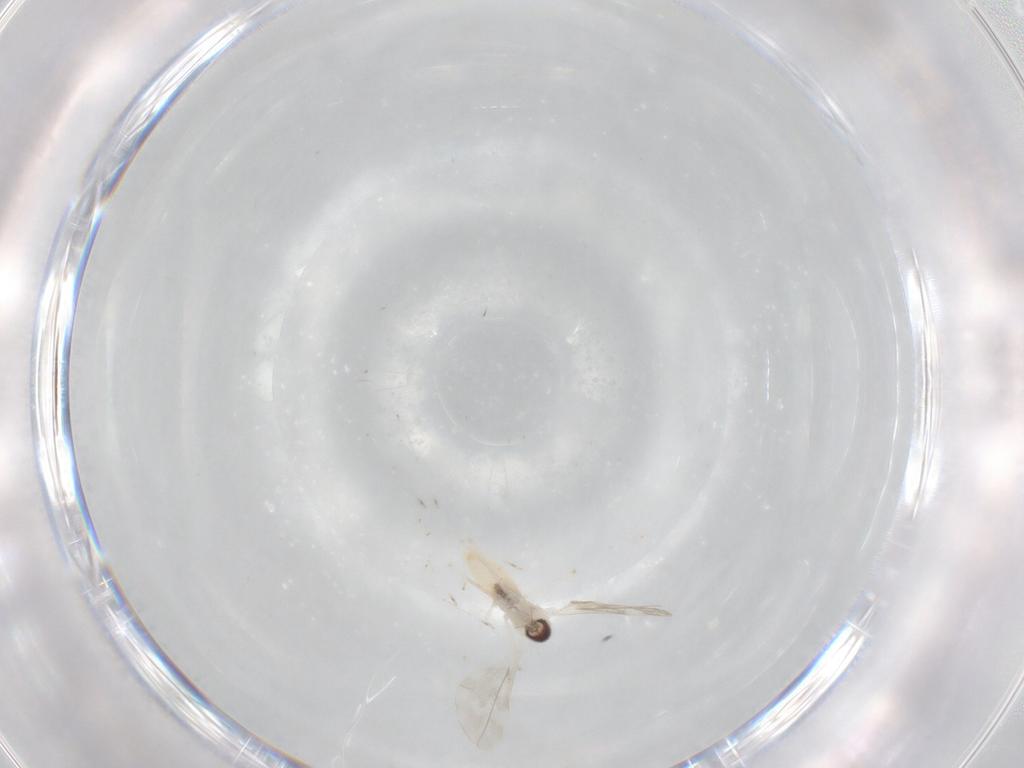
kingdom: Animalia
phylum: Arthropoda
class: Insecta
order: Diptera
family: Cecidomyiidae
